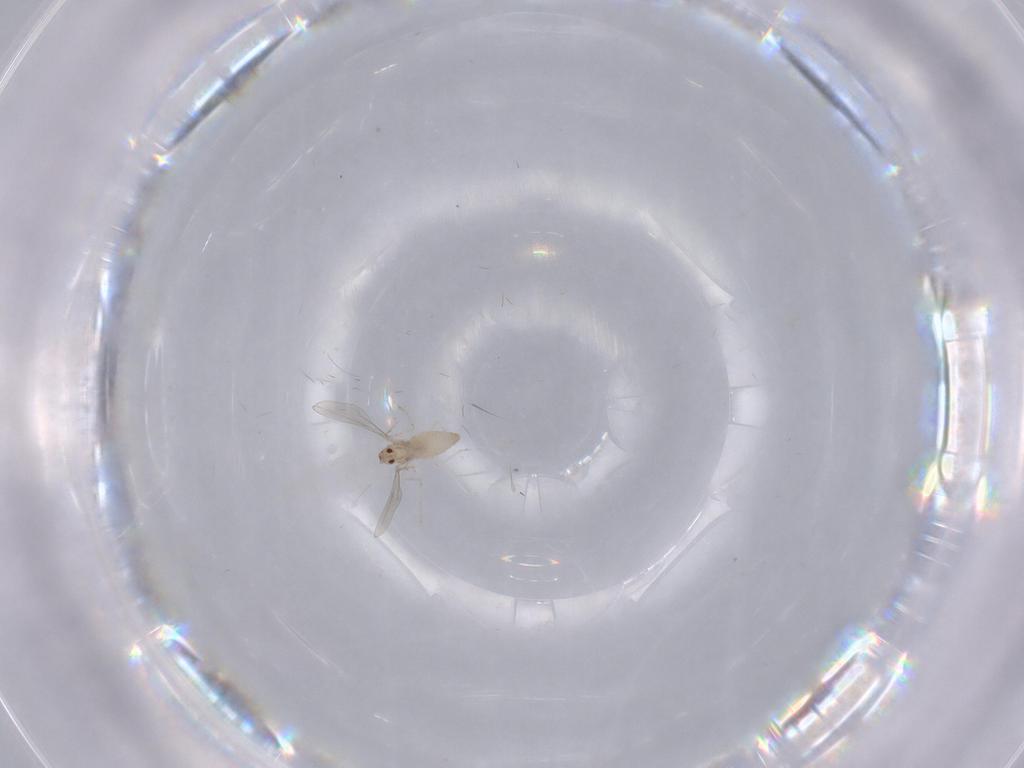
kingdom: Animalia
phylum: Arthropoda
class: Insecta
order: Diptera
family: Cecidomyiidae
